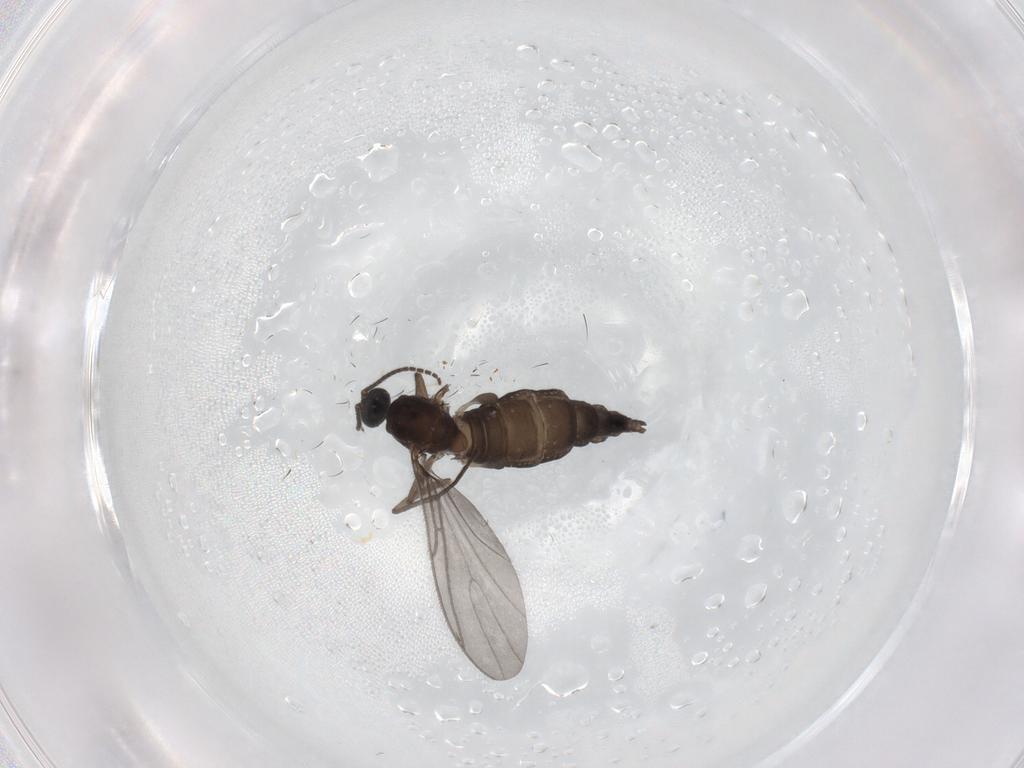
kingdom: Animalia
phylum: Arthropoda
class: Insecta
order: Diptera
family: Sciaridae
